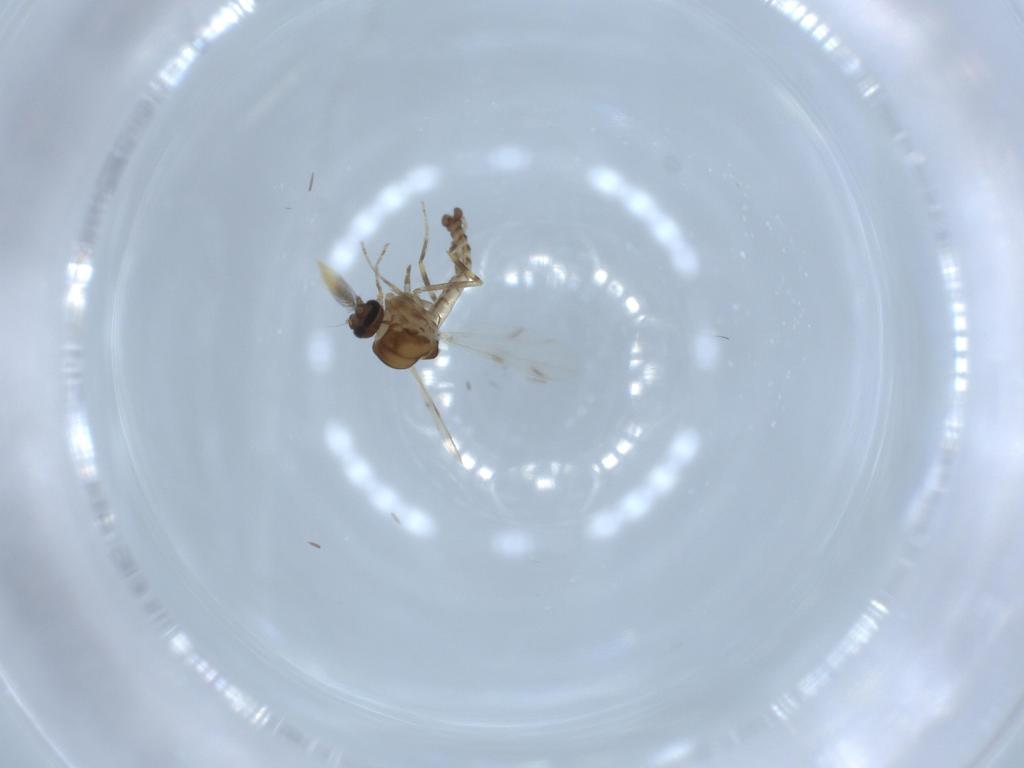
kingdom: Animalia
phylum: Arthropoda
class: Insecta
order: Diptera
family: Ceratopogonidae
